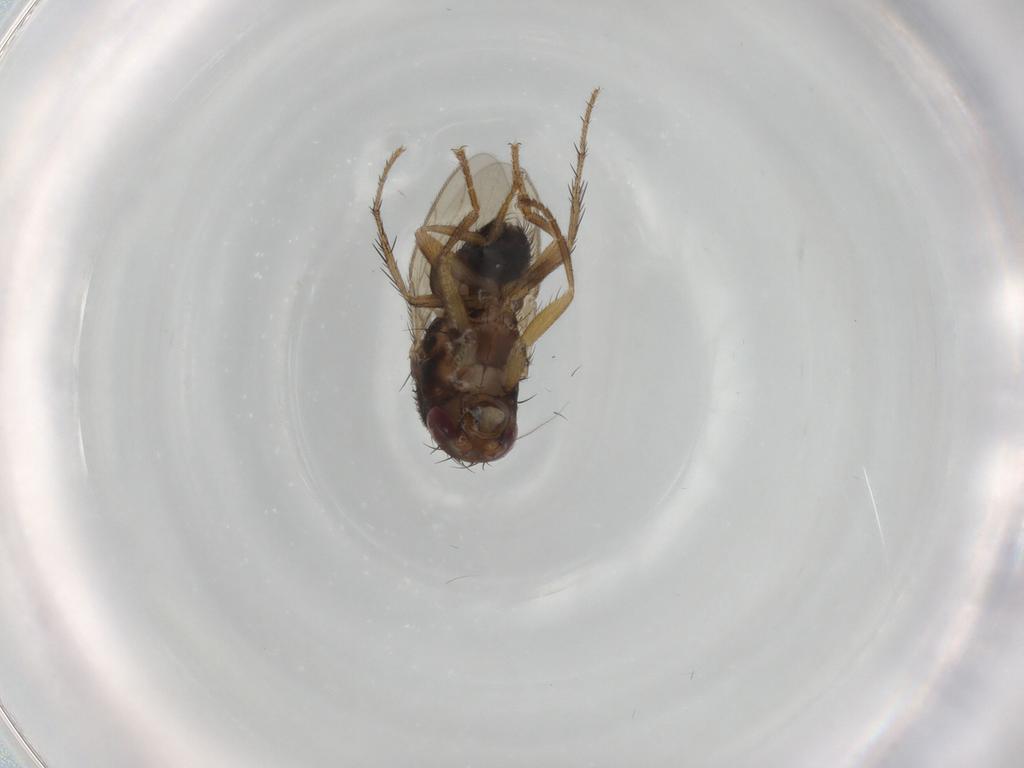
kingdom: Animalia
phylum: Arthropoda
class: Insecta
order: Diptera
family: Sphaeroceridae
